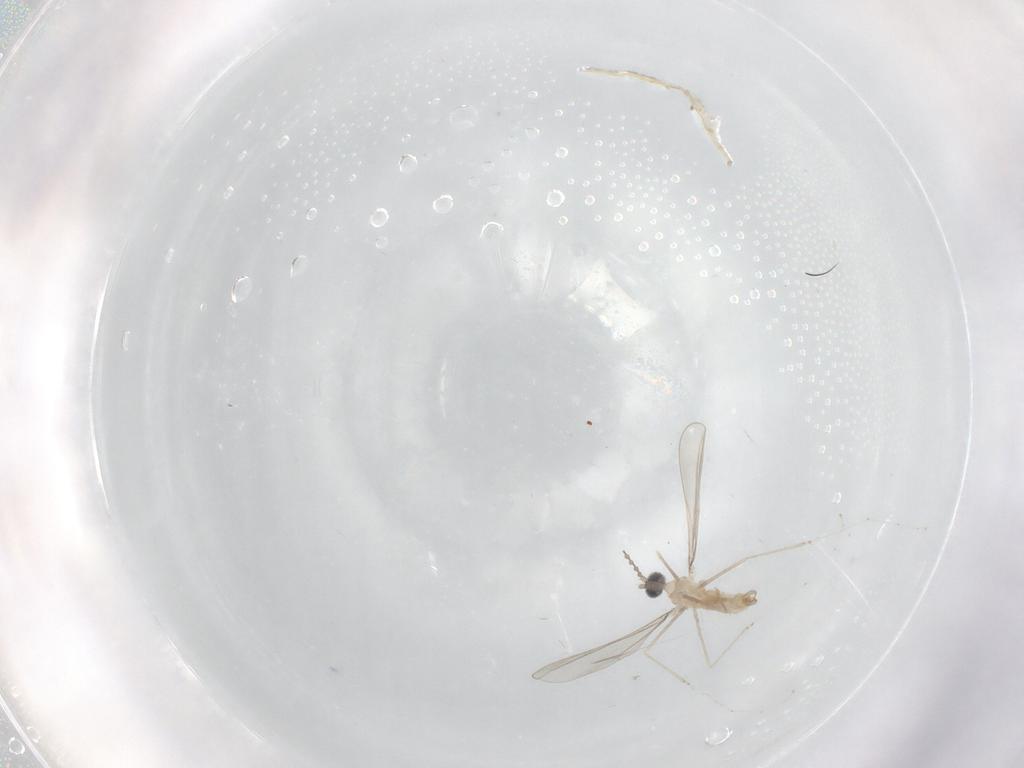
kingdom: Animalia
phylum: Arthropoda
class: Insecta
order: Diptera
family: Cecidomyiidae
